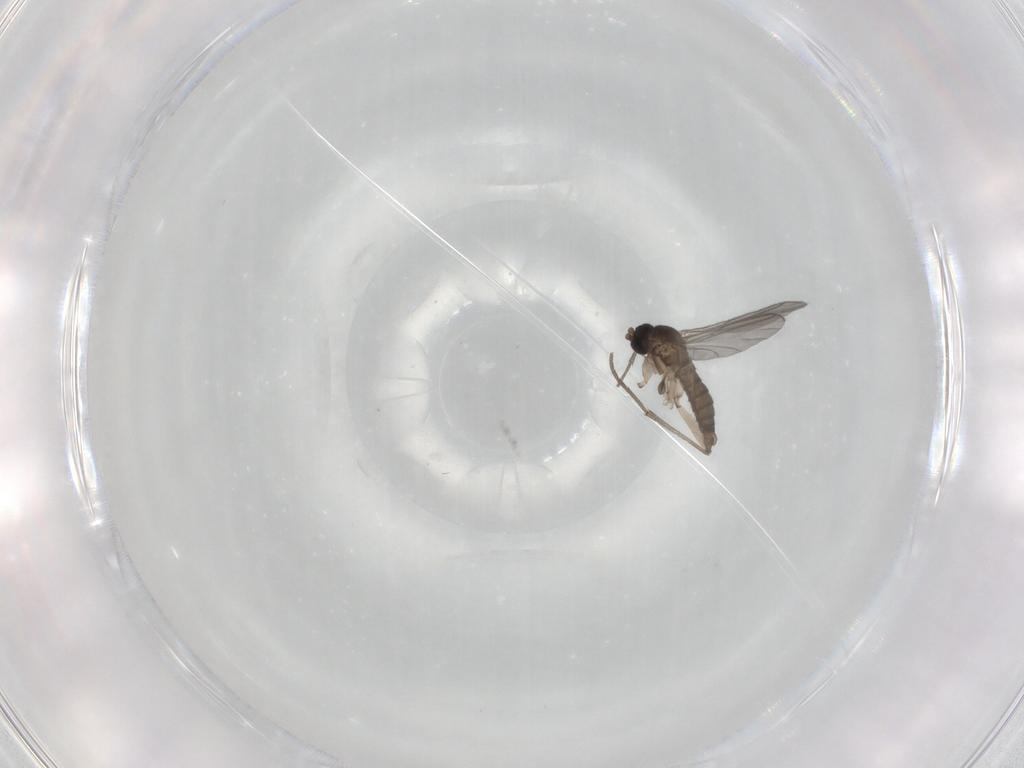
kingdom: Animalia
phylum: Arthropoda
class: Insecta
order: Diptera
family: Sciaridae
